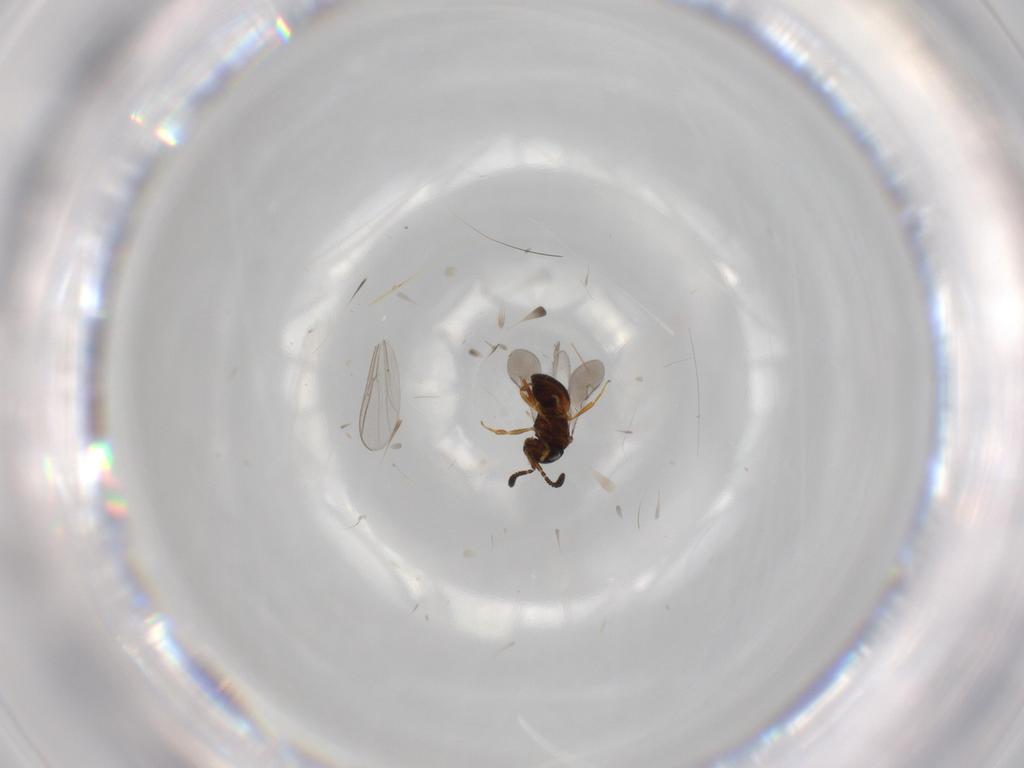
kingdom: Animalia
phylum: Arthropoda
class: Insecta
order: Hymenoptera
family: Scelionidae
